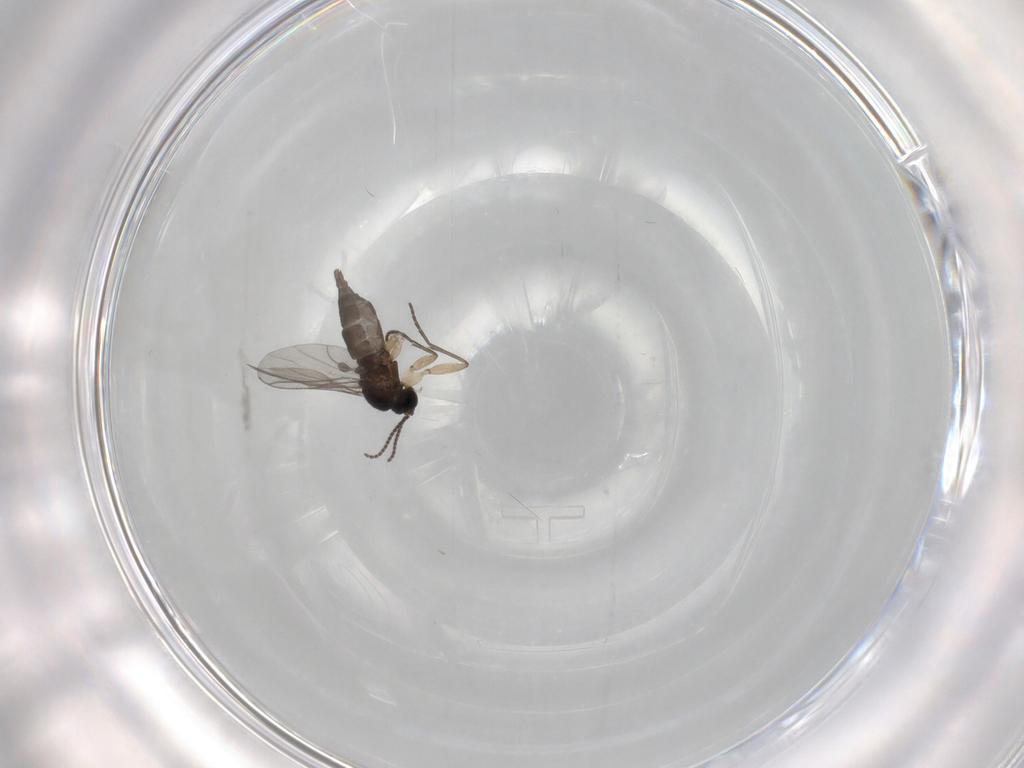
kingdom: Animalia
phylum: Arthropoda
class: Insecta
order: Diptera
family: Sciaridae
